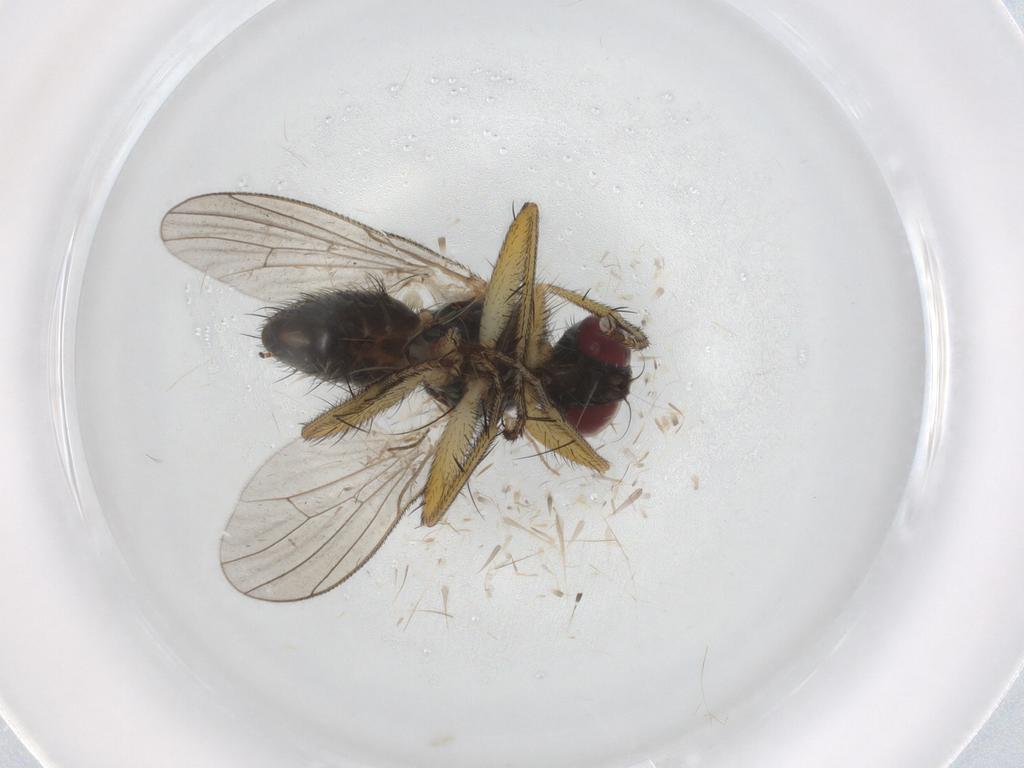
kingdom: Animalia
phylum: Arthropoda
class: Insecta
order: Diptera
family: Muscidae
